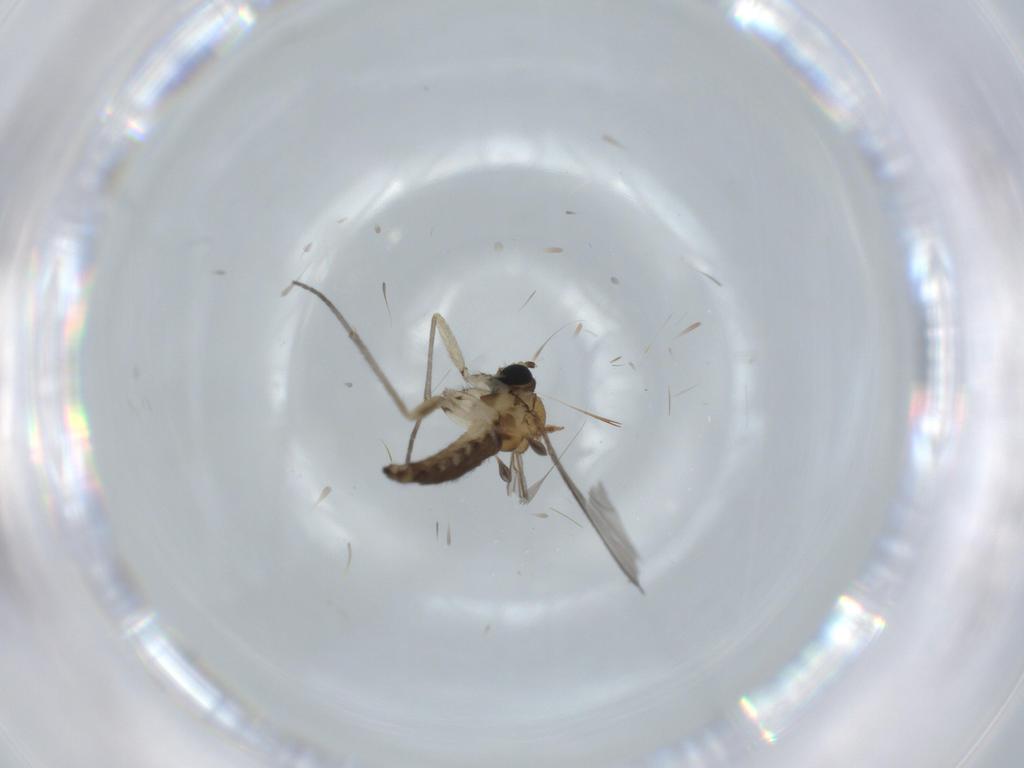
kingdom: Animalia
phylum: Arthropoda
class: Insecta
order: Diptera
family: Sciaridae
